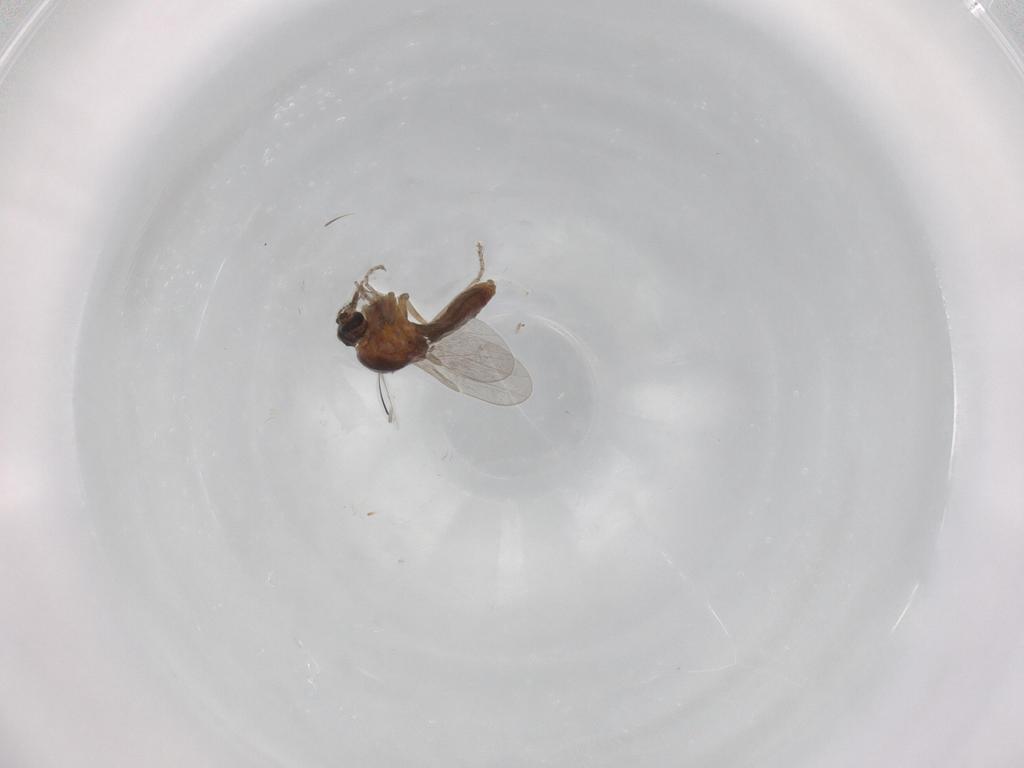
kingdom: Animalia
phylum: Arthropoda
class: Insecta
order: Diptera
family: Ceratopogonidae
